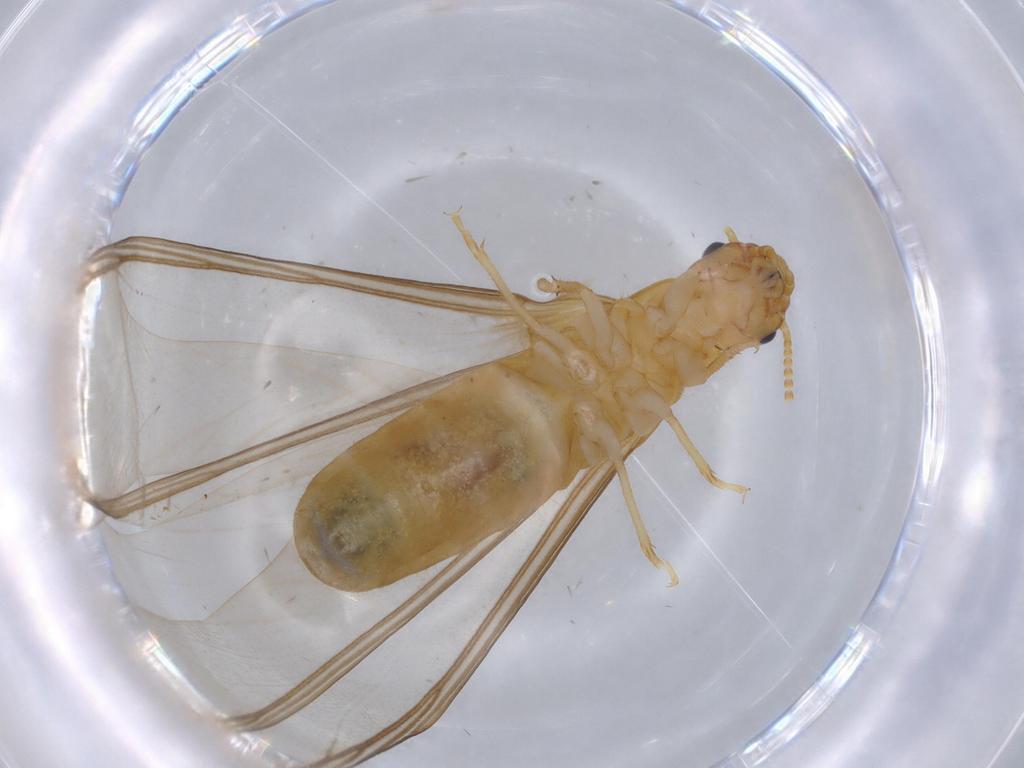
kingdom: Animalia
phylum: Arthropoda
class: Insecta
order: Blattodea
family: Kalotermitidae
